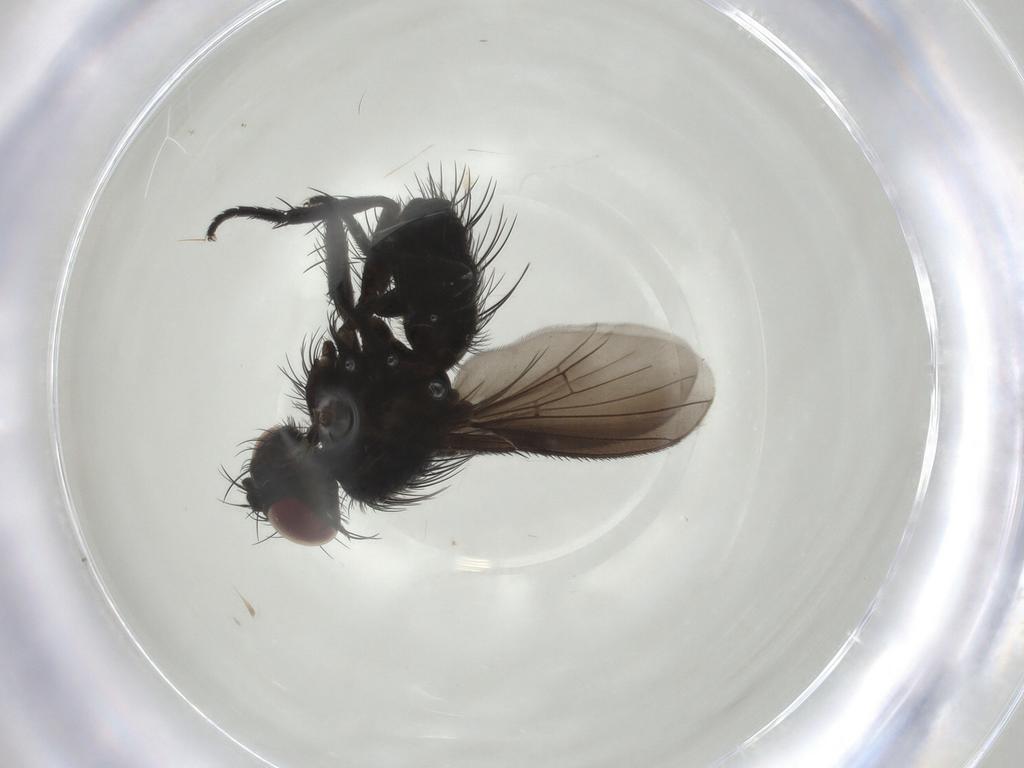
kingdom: Animalia
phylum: Arthropoda
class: Insecta
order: Diptera
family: Tachinidae
